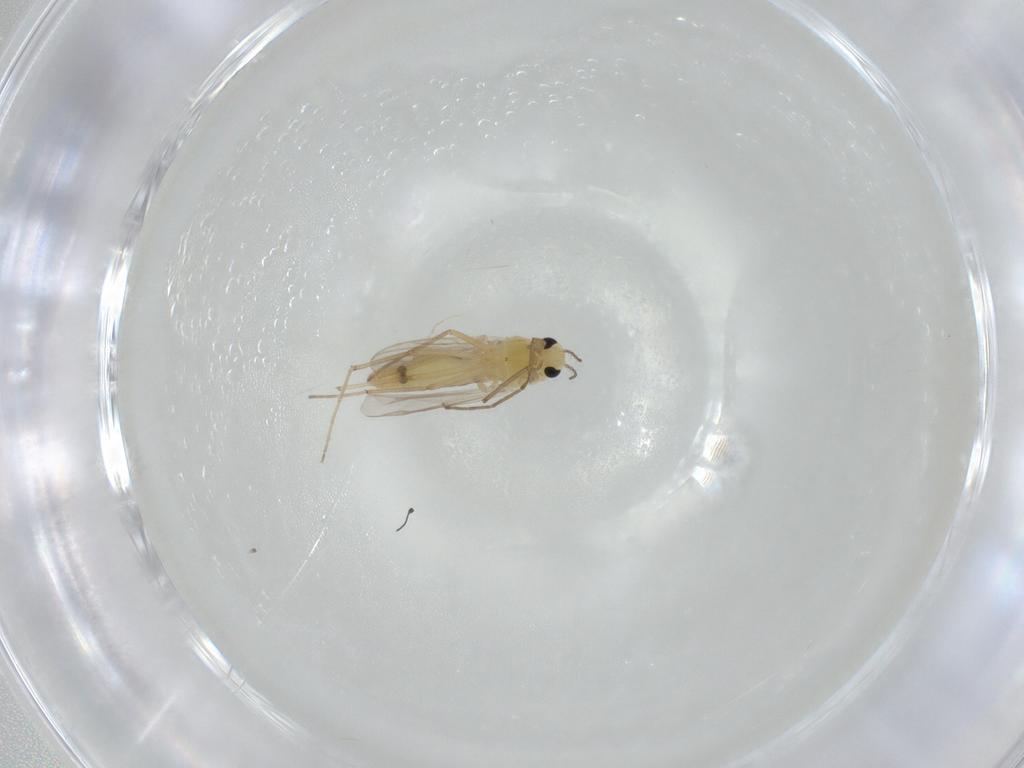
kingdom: Animalia
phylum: Arthropoda
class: Insecta
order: Diptera
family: Chironomidae
